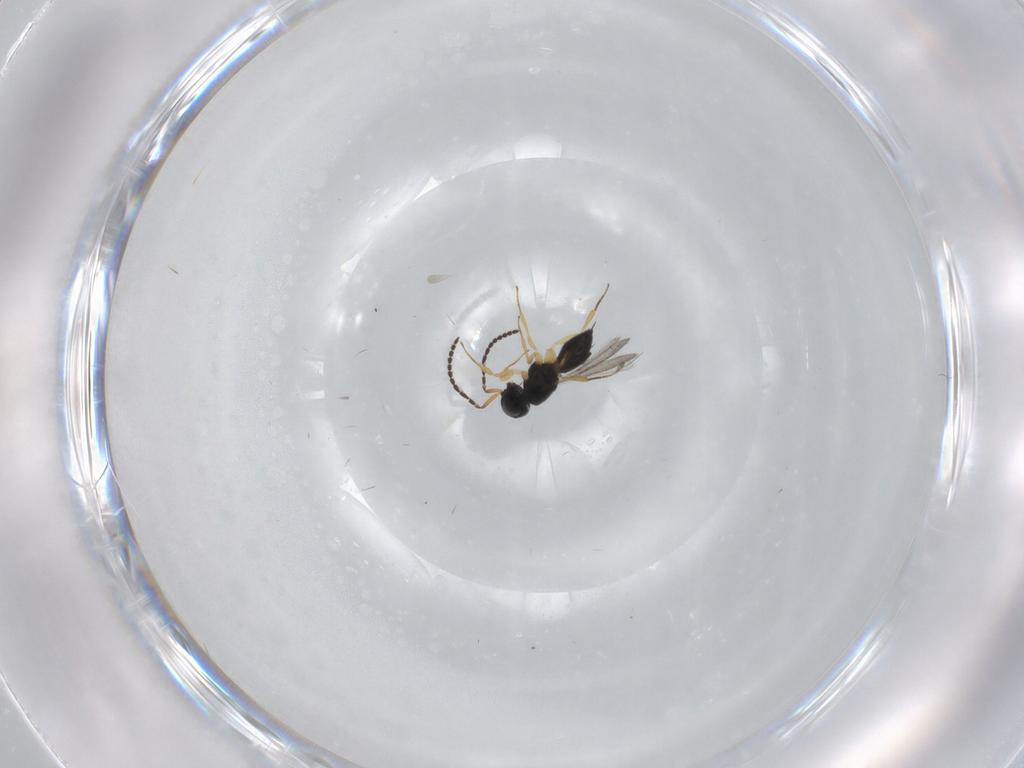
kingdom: Animalia
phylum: Arthropoda
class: Insecta
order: Hymenoptera
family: Scelionidae
